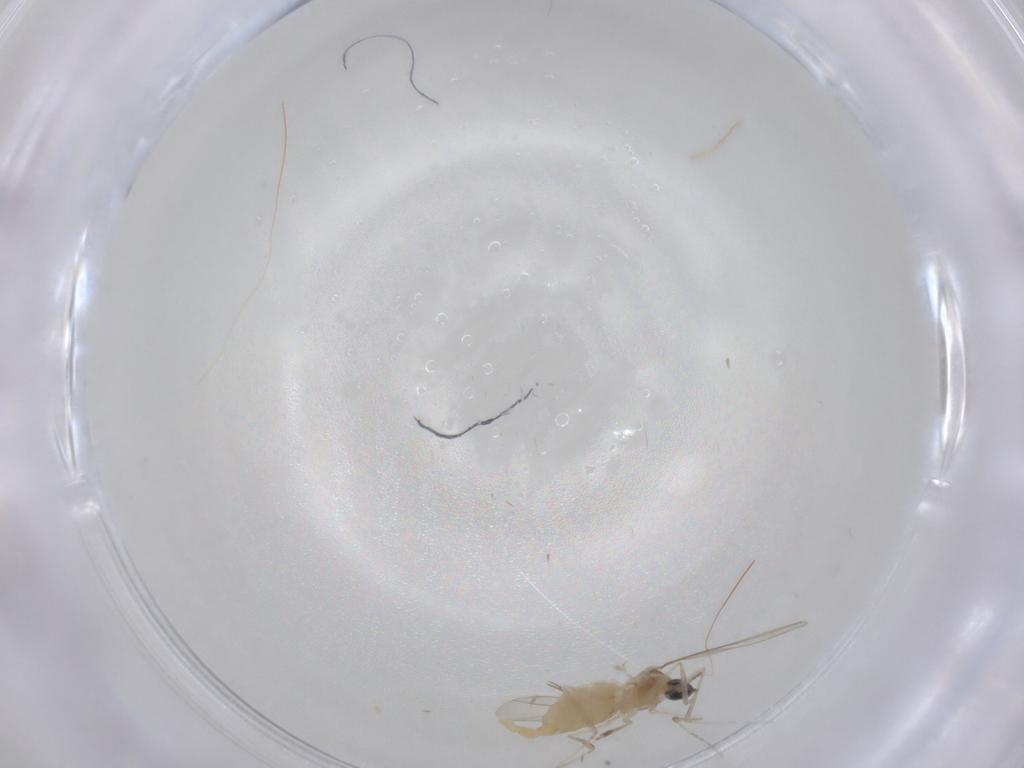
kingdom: Animalia
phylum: Arthropoda
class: Insecta
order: Diptera
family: Cecidomyiidae
